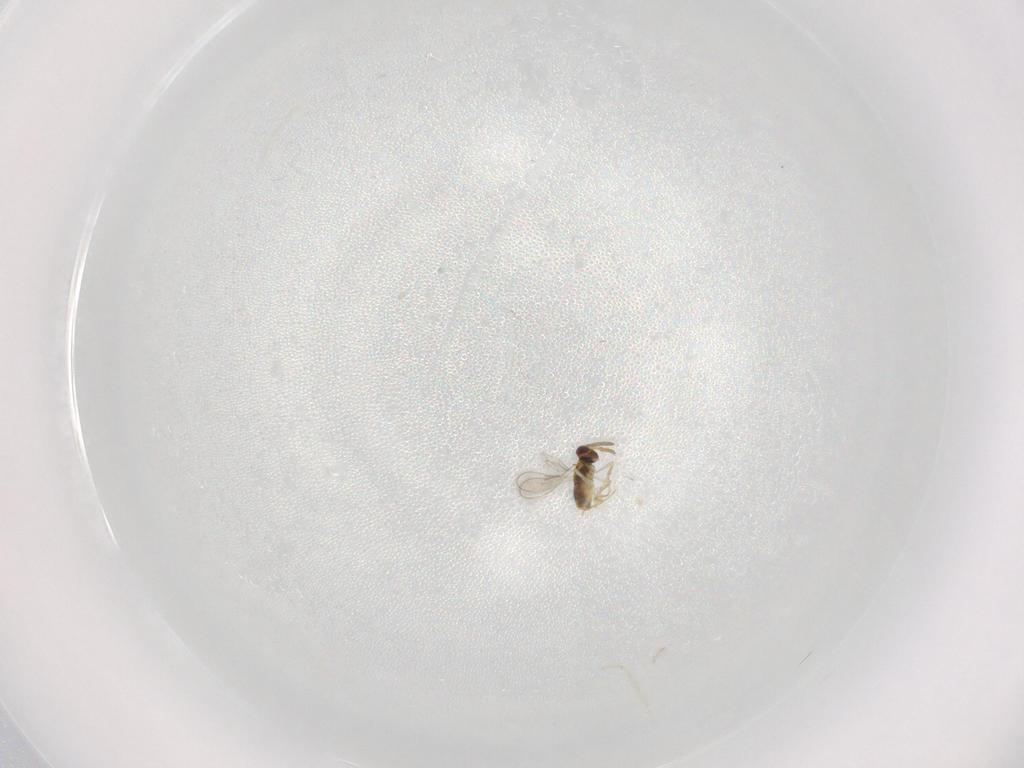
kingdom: Animalia
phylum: Arthropoda
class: Insecta
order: Hymenoptera
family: Aphelinidae
